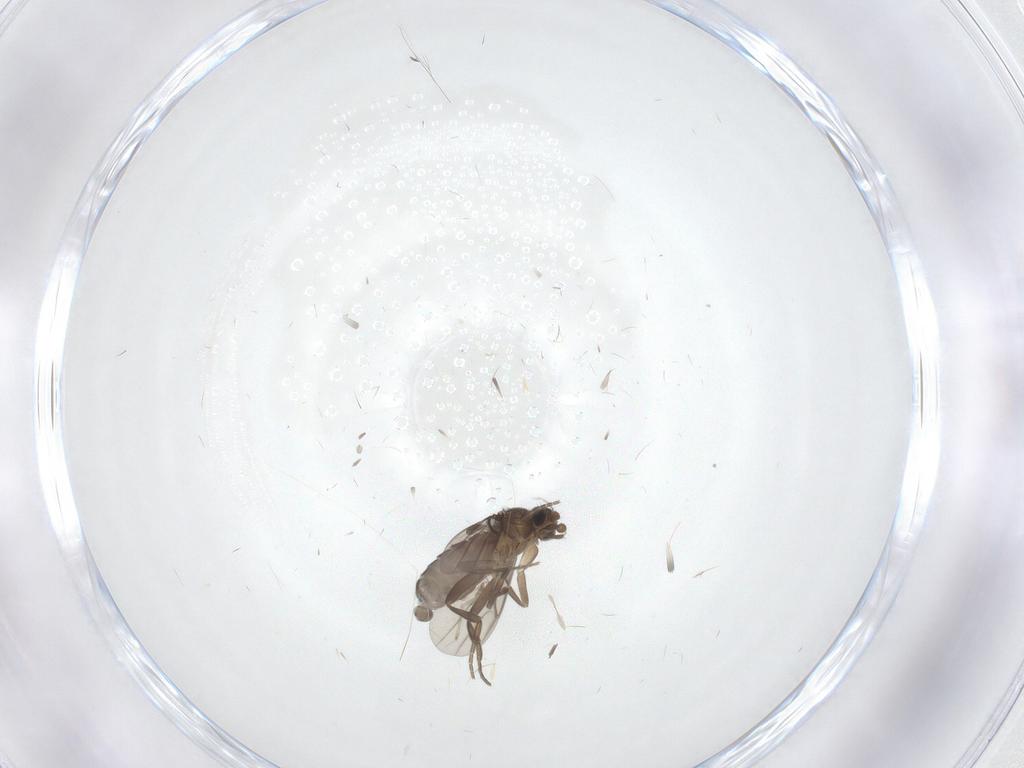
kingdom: Animalia
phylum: Arthropoda
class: Insecta
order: Diptera
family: Phoridae
